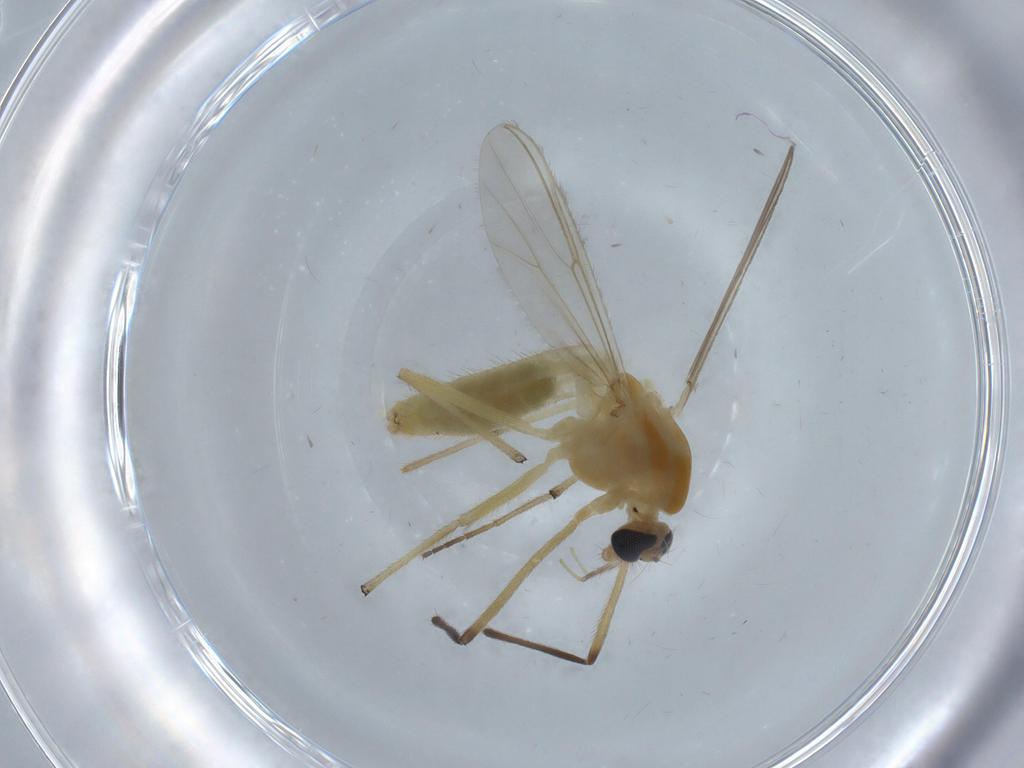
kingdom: Animalia
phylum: Arthropoda
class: Insecta
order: Diptera
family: Cecidomyiidae
